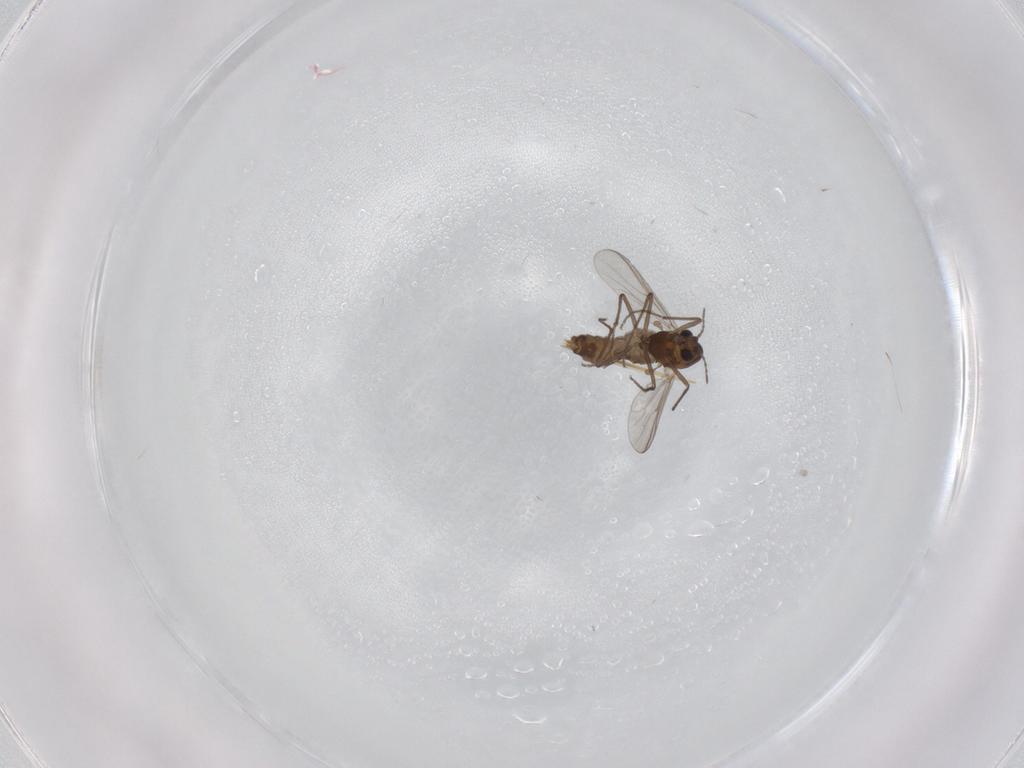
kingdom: Animalia
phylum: Arthropoda
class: Insecta
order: Diptera
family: Chironomidae
